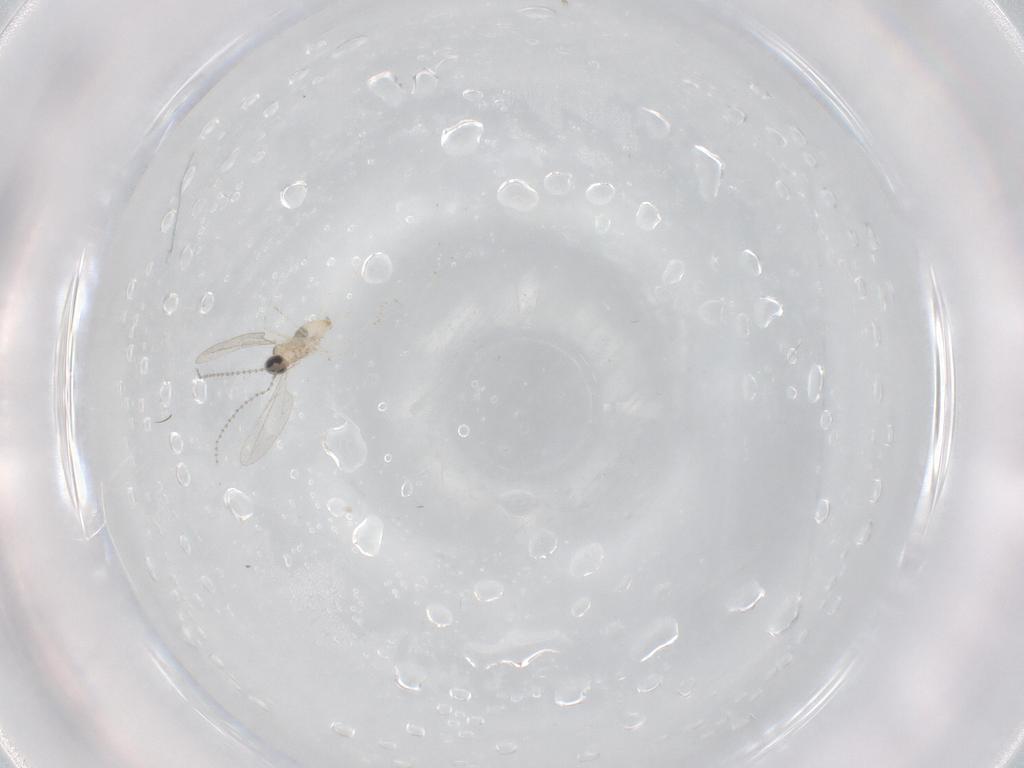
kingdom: Animalia
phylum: Arthropoda
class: Insecta
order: Diptera
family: Cecidomyiidae
